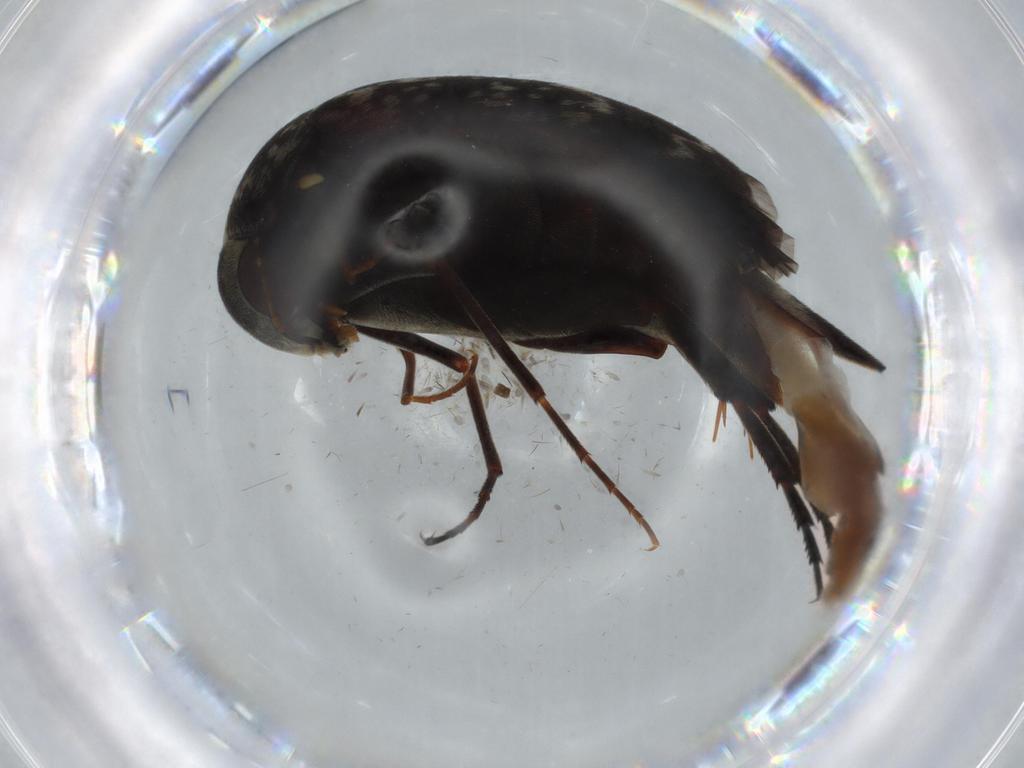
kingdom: Animalia
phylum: Arthropoda
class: Insecta
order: Coleoptera
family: Mordellidae
